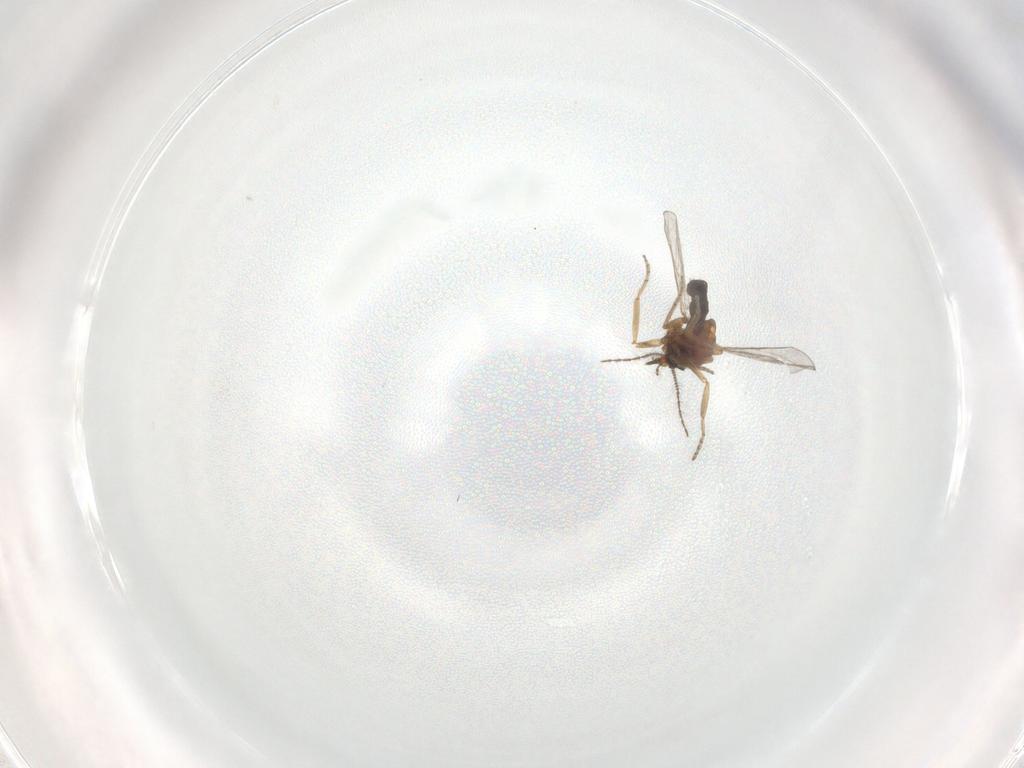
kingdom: Animalia
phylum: Arthropoda
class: Insecta
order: Diptera
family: Ceratopogonidae
